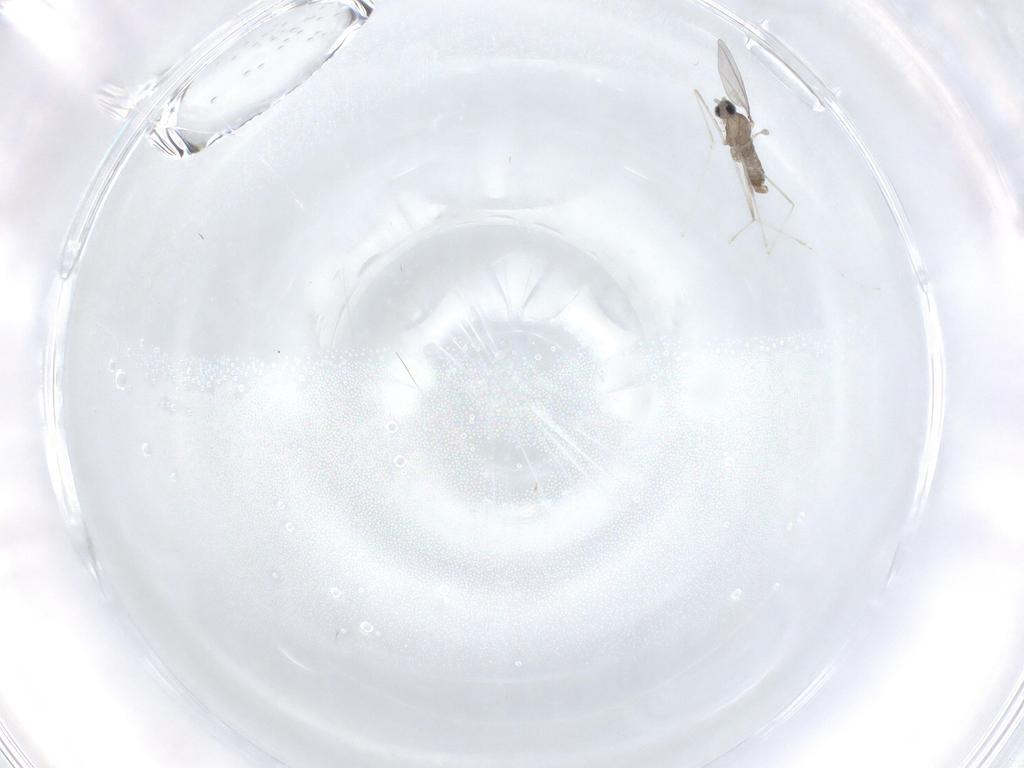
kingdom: Animalia
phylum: Arthropoda
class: Insecta
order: Diptera
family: Cecidomyiidae
